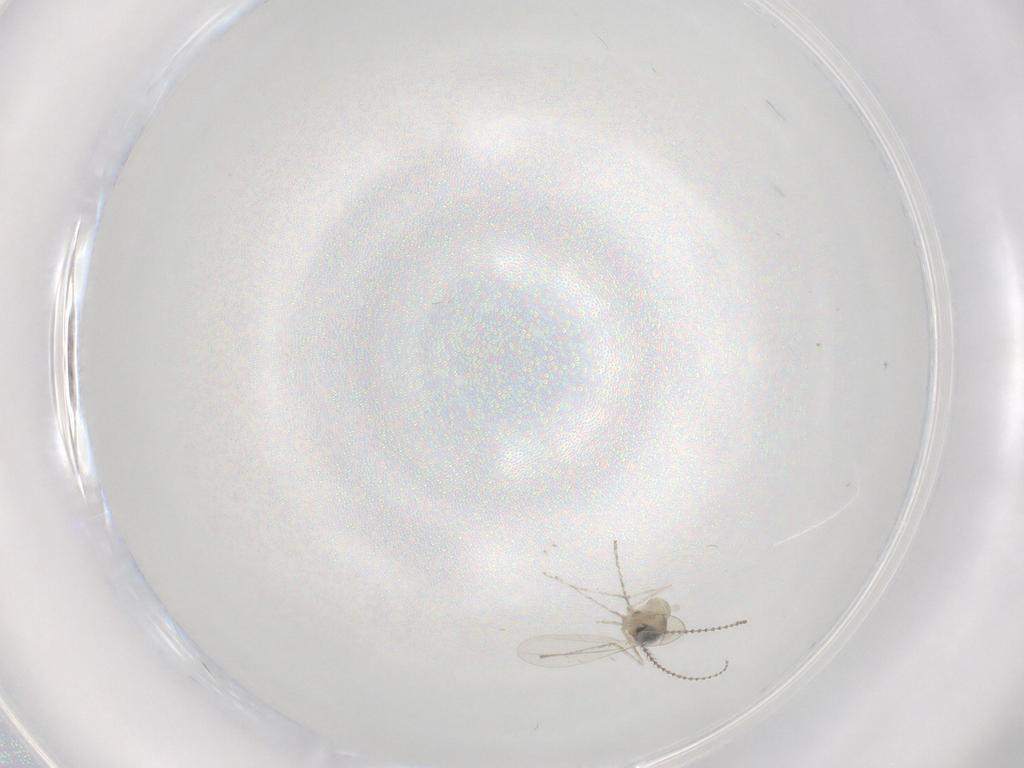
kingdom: Animalia
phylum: Arthropoda
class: Insecta
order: Diptera
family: Cecidomyiidae
